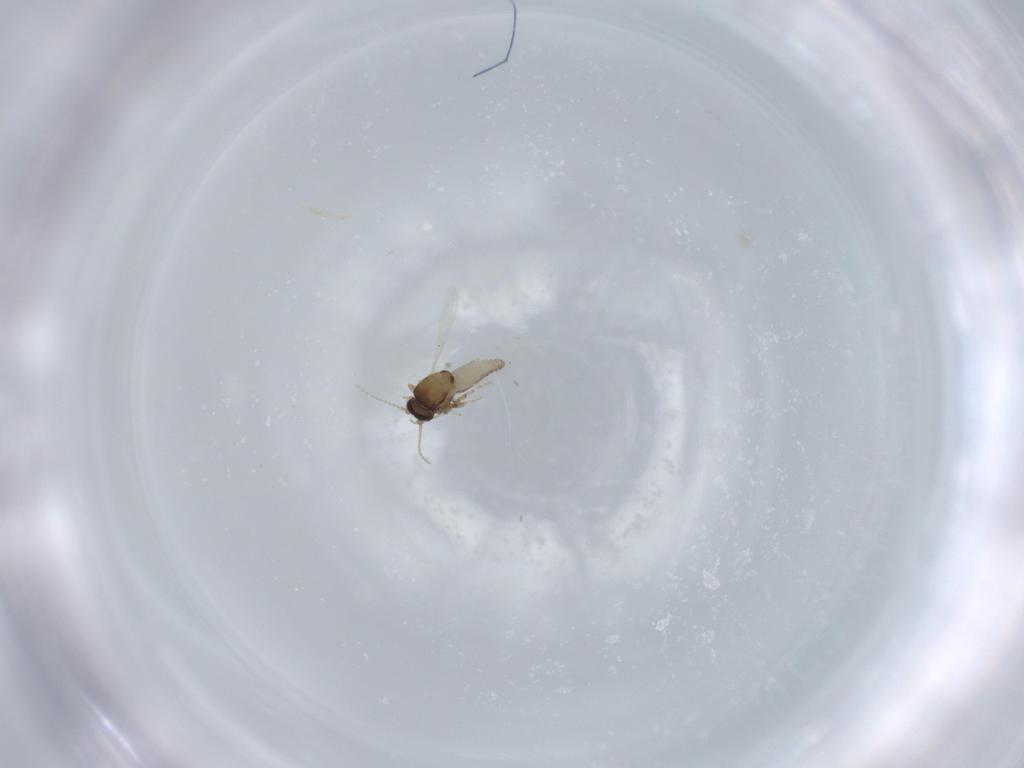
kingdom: Animalia
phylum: Arthropoda
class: Insecta
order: Diptera
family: Ceratopogonidae
